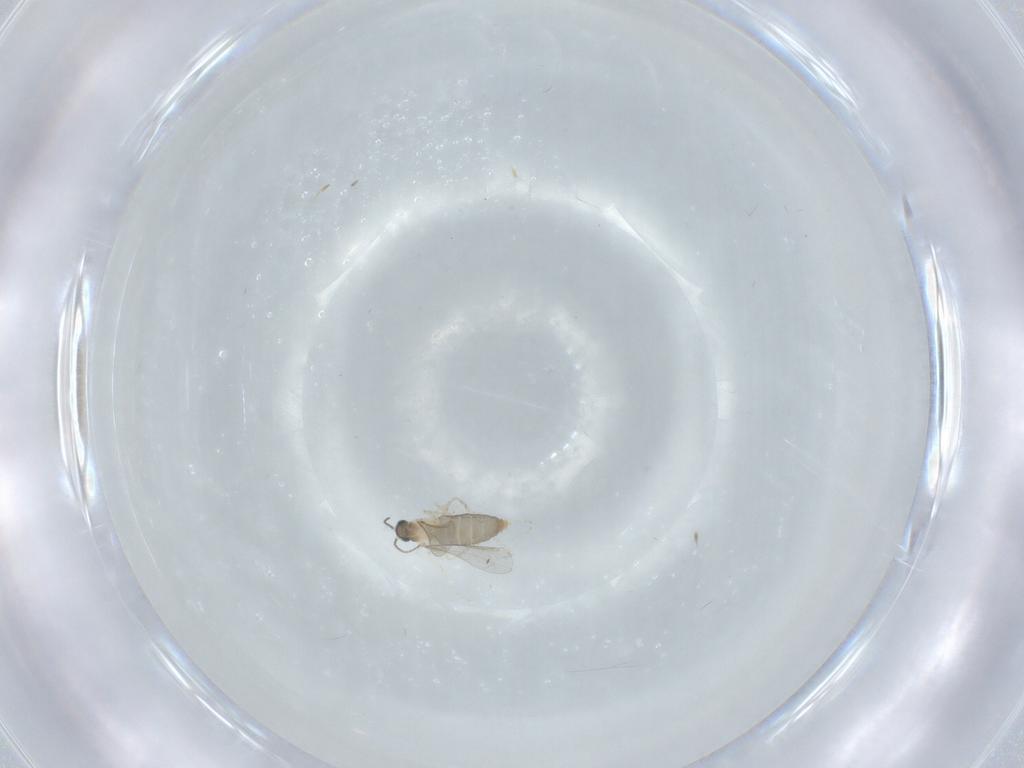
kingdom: Animalia
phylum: Arthropoda
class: Insecta
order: Diptera
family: Cecidomyiidae
